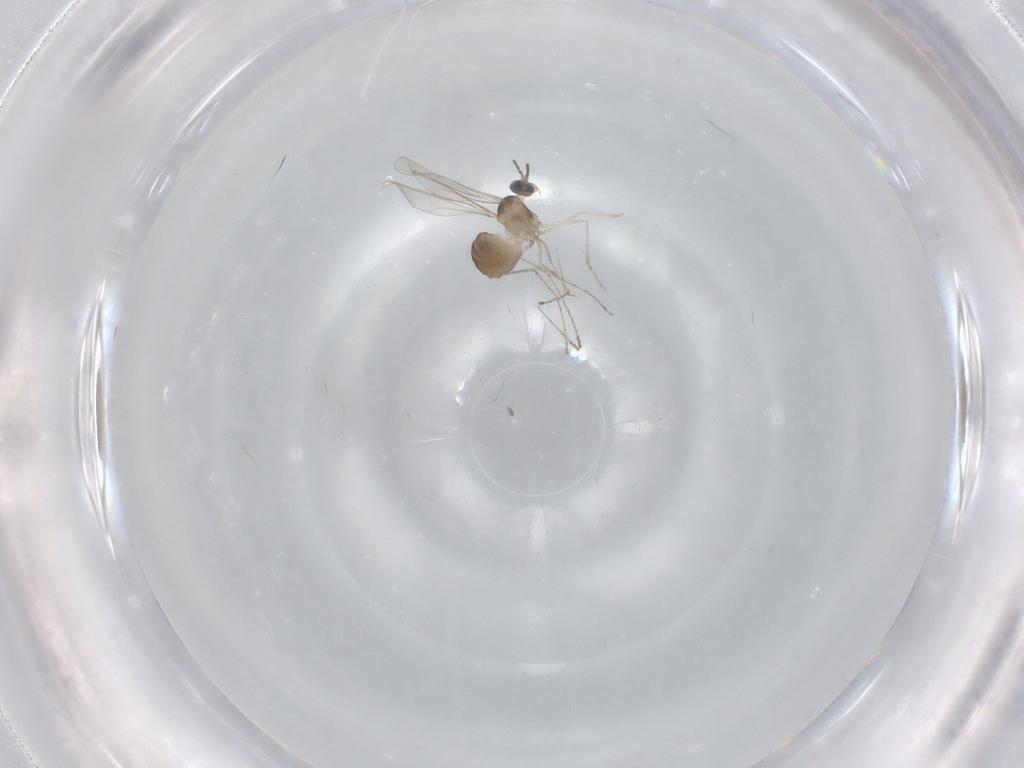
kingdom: Animalia
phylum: Arthropoda
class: Insecta
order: Diptera
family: Cecidomyiidae
